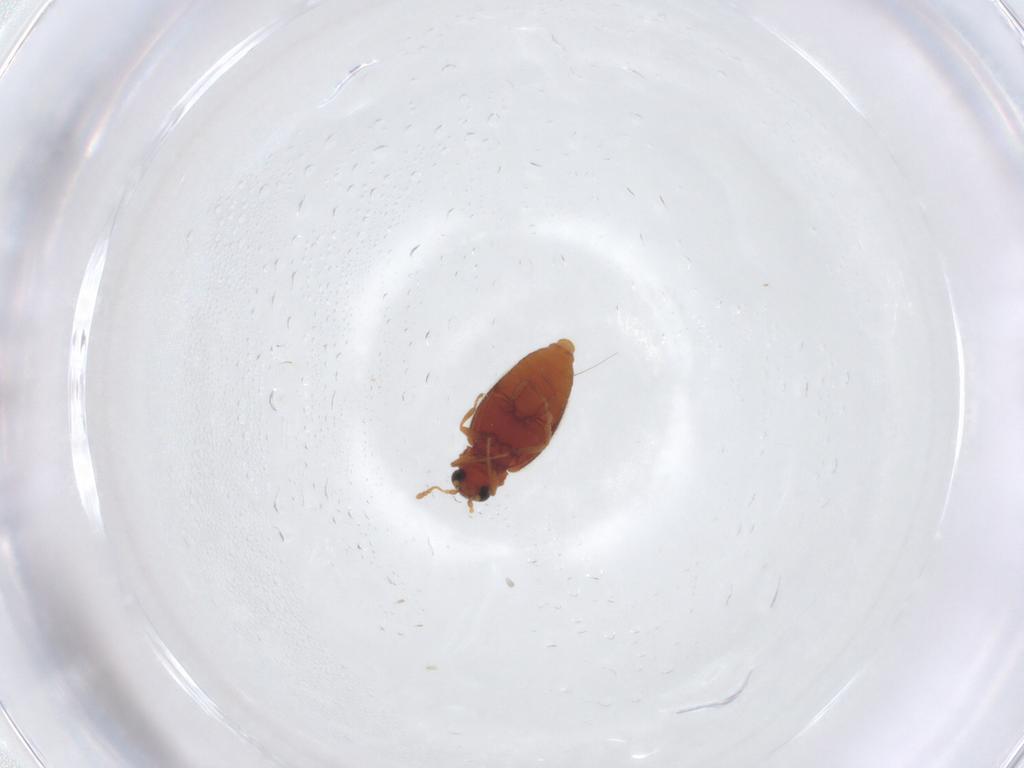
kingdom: Animalia
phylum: Arthropoda
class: Insecta
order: Coleoptera
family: Latridiidae
